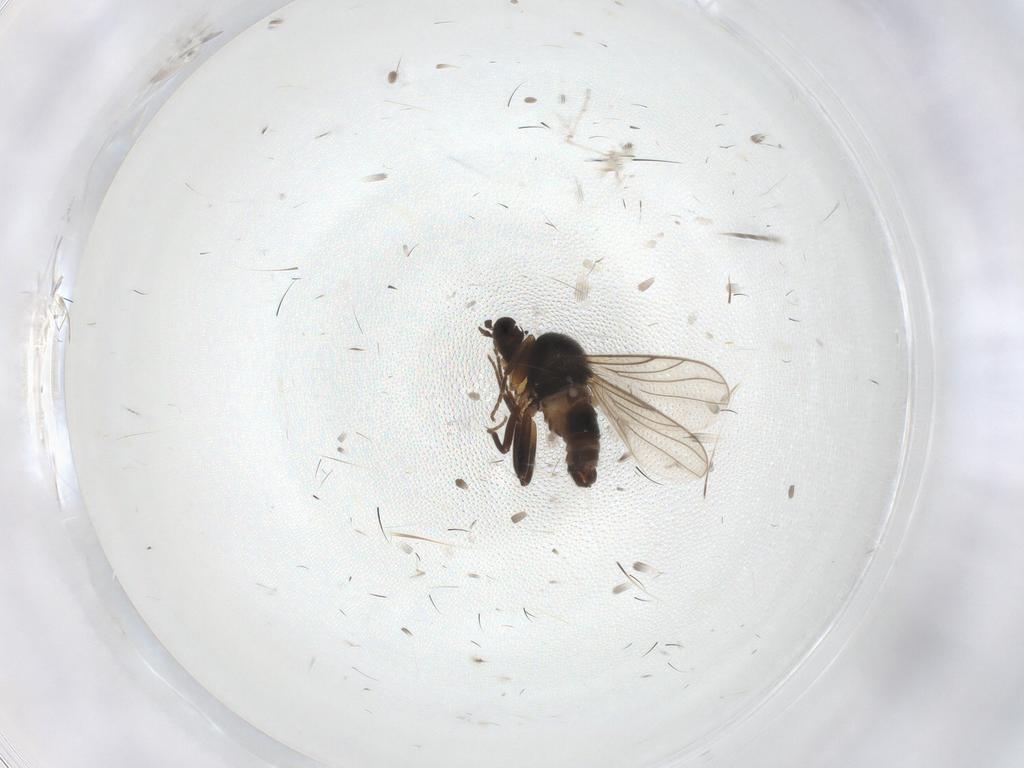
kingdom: Animalia
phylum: Arthropoda
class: Insecta
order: Diptera
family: Hybotidae
